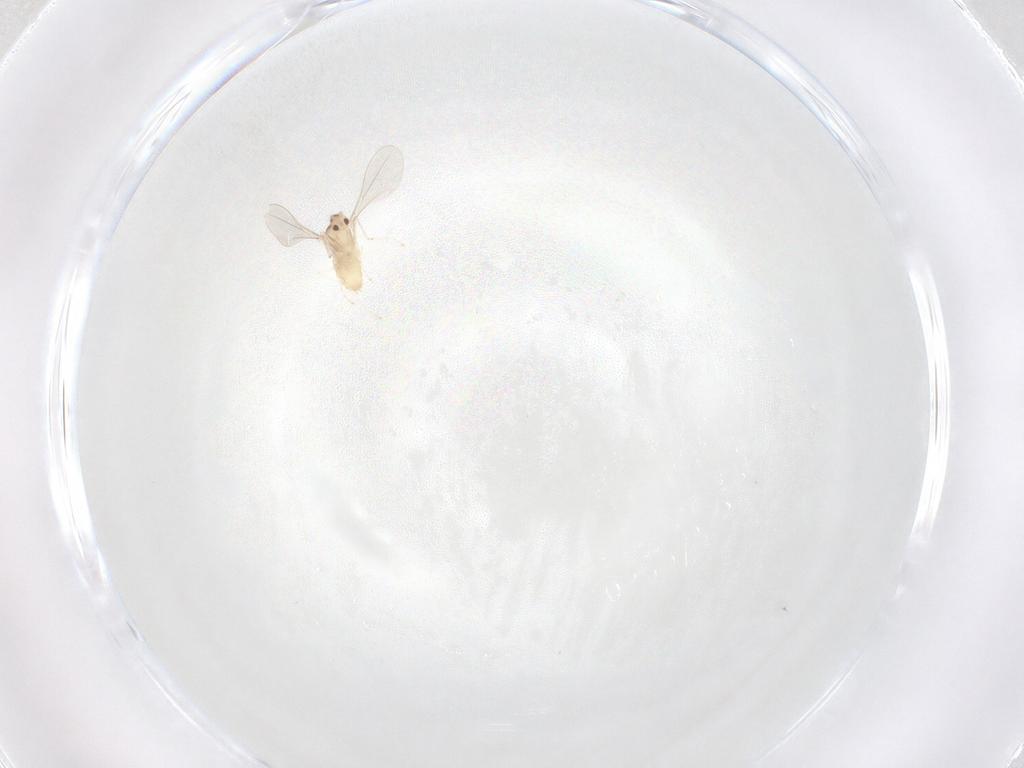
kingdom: Animalia
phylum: Arthropoda
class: Insecta
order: Diptera
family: Cecidomyiidae
